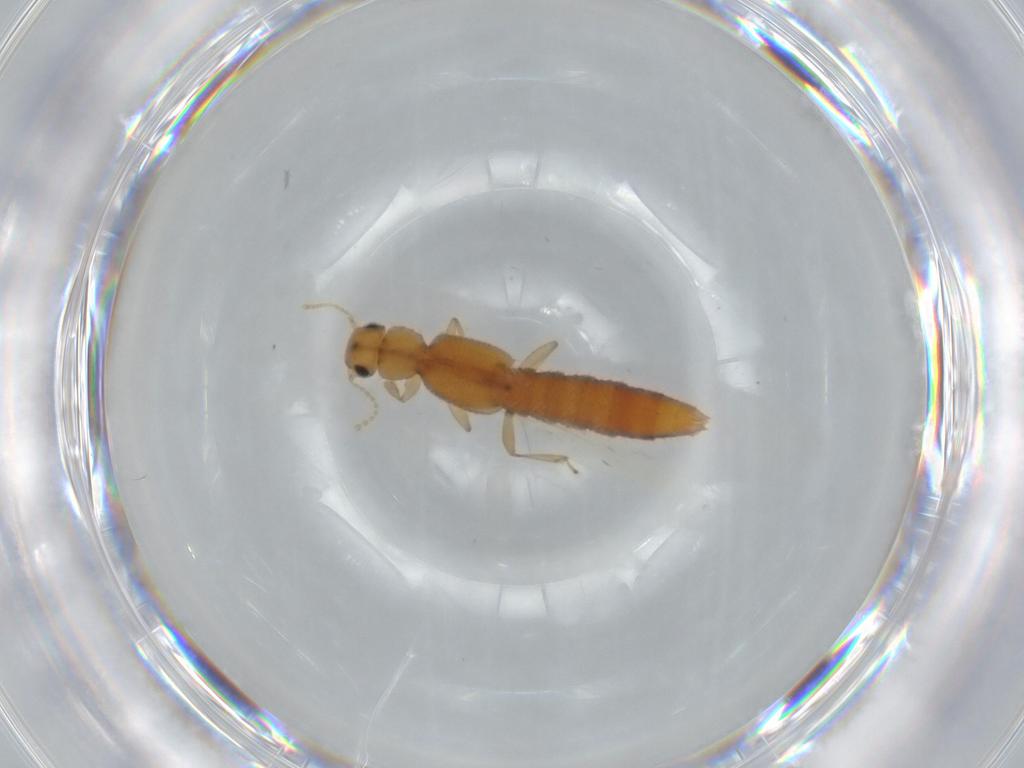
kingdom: Animalia
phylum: Arthropoda
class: Insecta
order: Coleoptera
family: Staphylinidae
